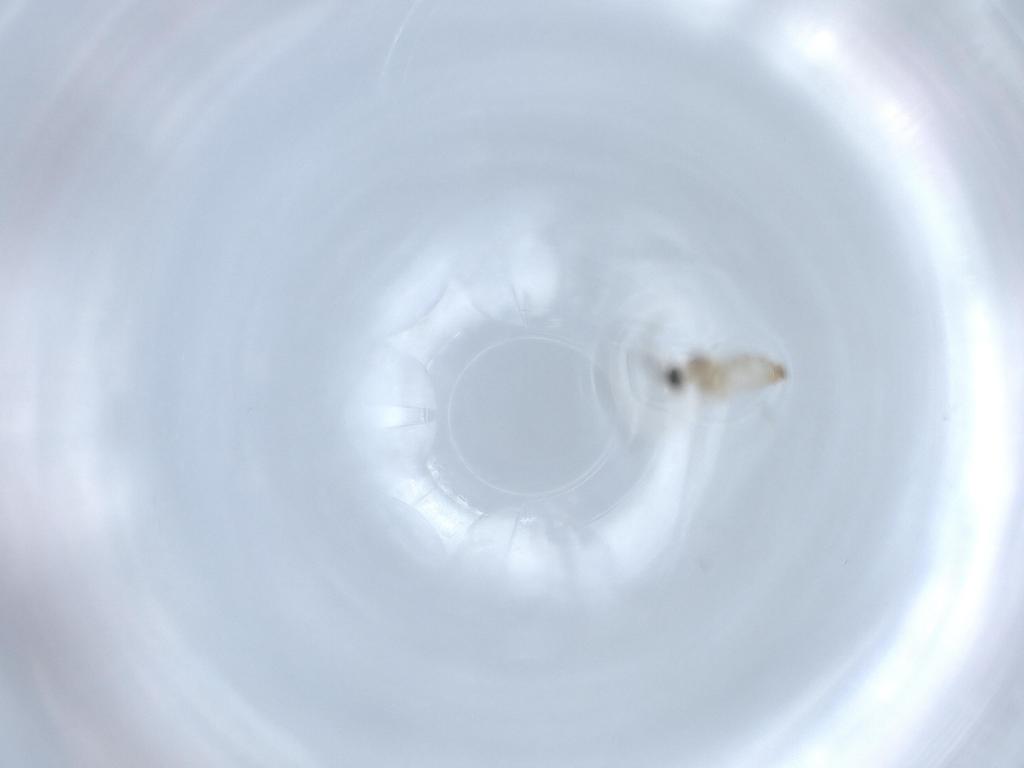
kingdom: Animalia
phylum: Arthropoda
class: Insecta
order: Diptera
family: Cecidomyiidae
